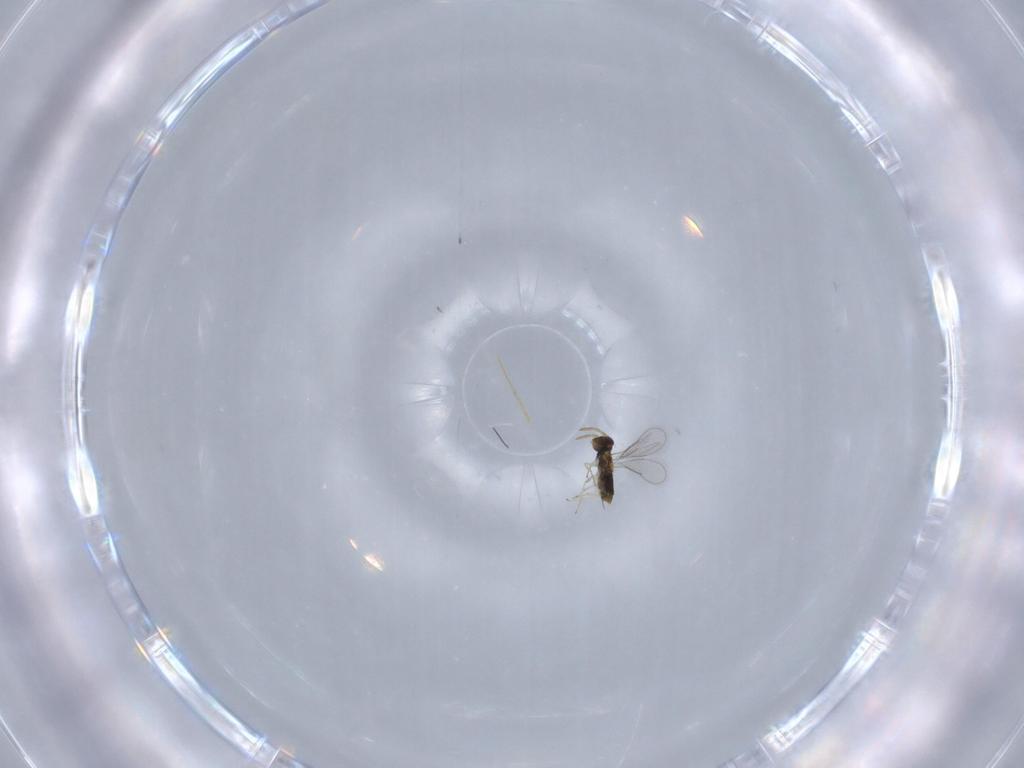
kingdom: Animalia
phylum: Arthropoda
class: Insecta
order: Hymenoptera
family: Aphelinidae
